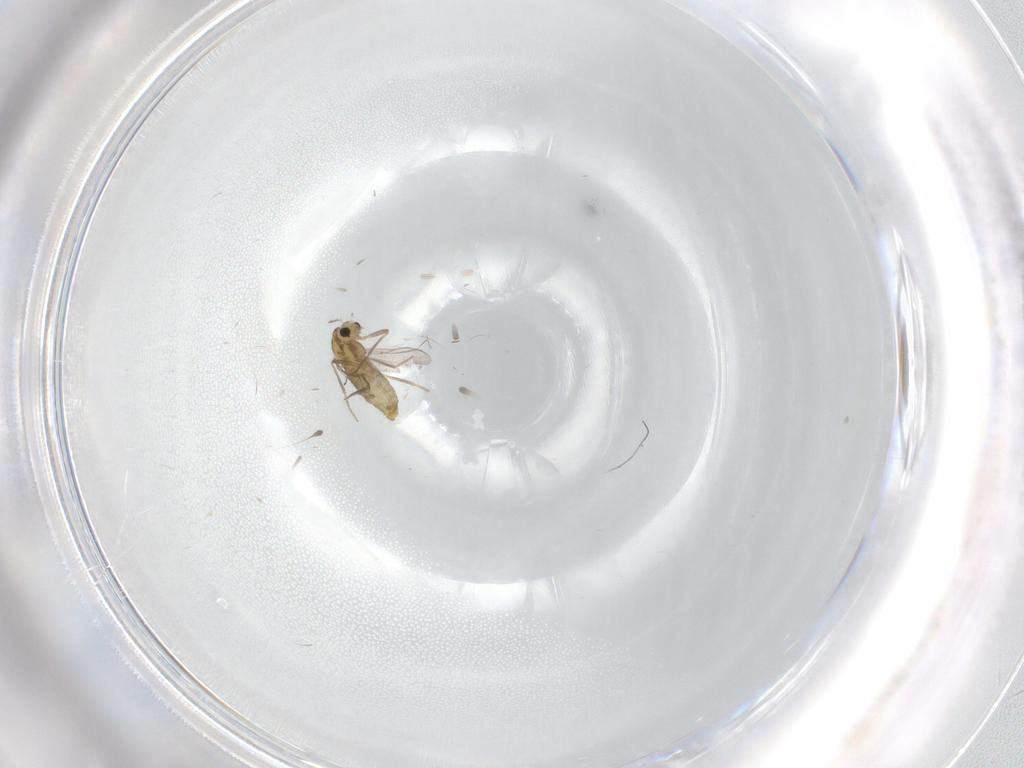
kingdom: Animalia
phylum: Arthropoda
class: Insecta
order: Diptera
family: Chironomidae
